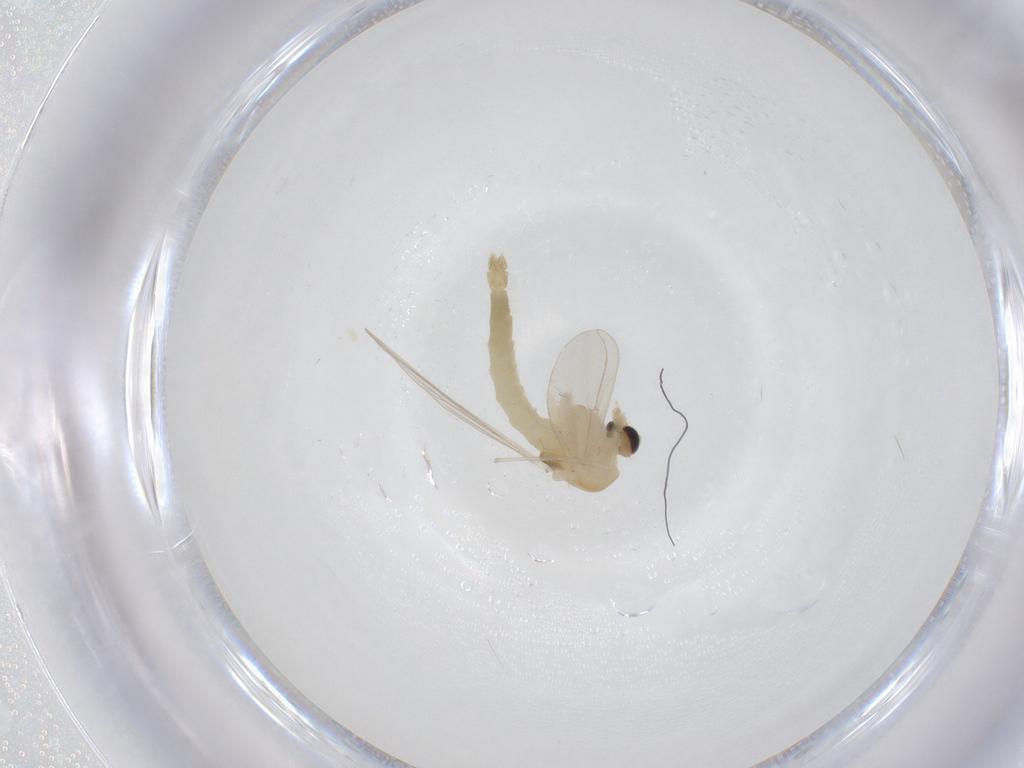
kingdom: Animalia
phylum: Arthropoda
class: Insecta
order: Diptera
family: Chironomidae
